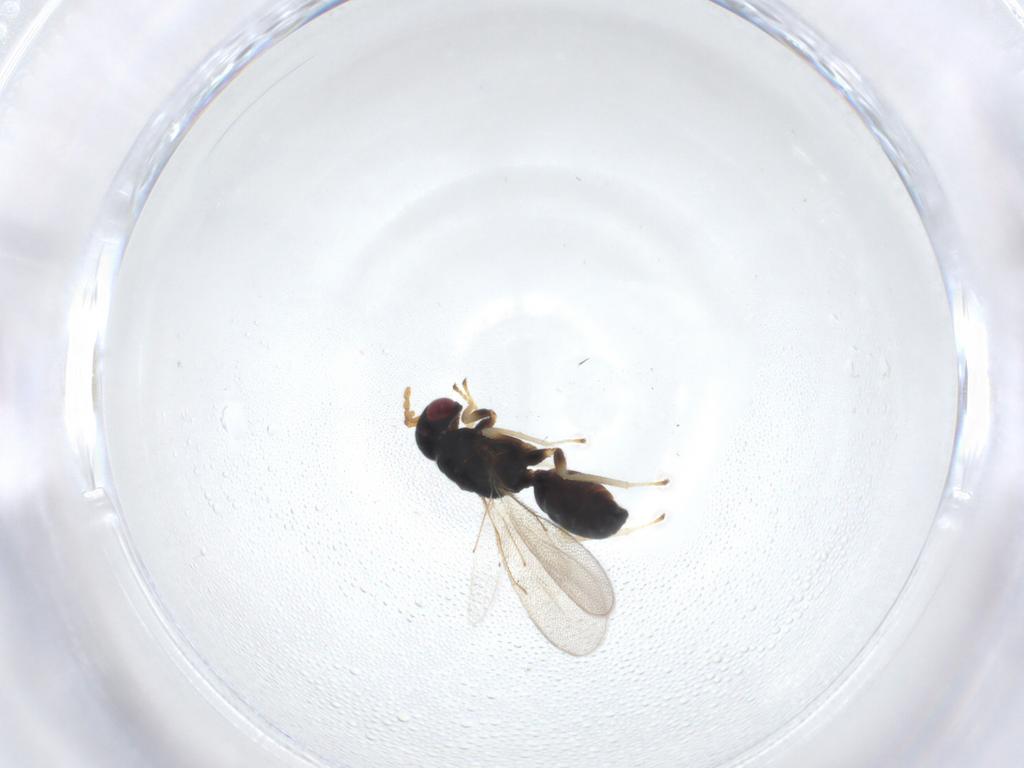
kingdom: Animalia
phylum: Arthropoda
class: Insecta
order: Hymenoptera
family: Eulophidae
